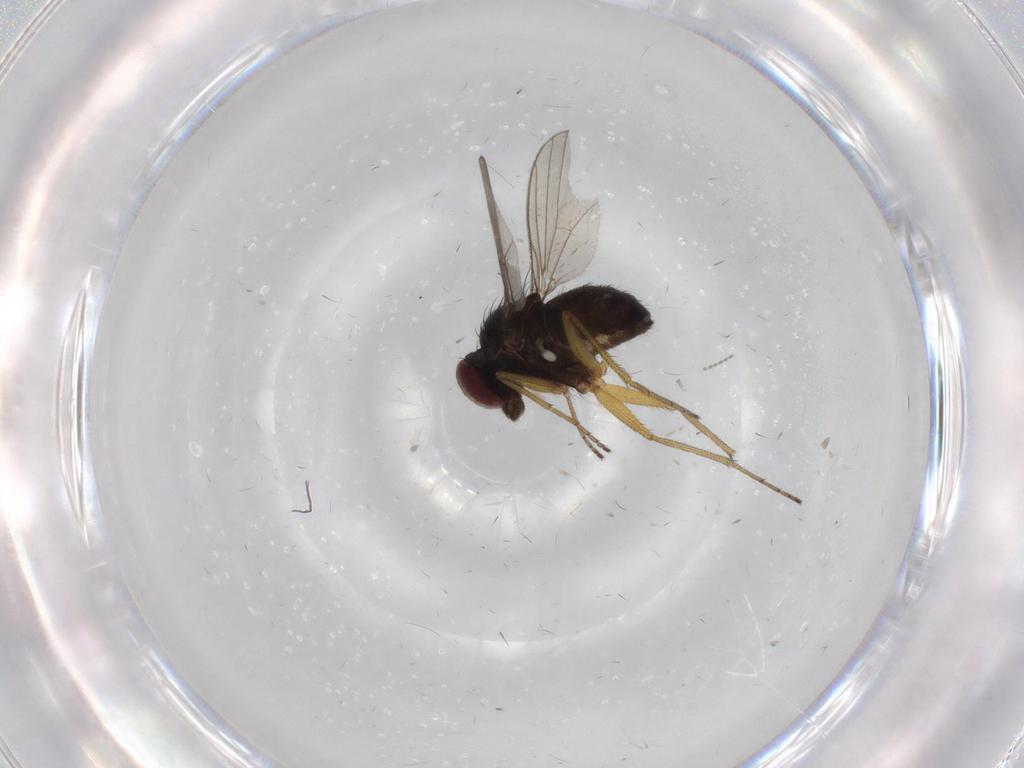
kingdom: Animalia
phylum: Arthropoda
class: Insecta
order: Diptera
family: Dolichopodidae
